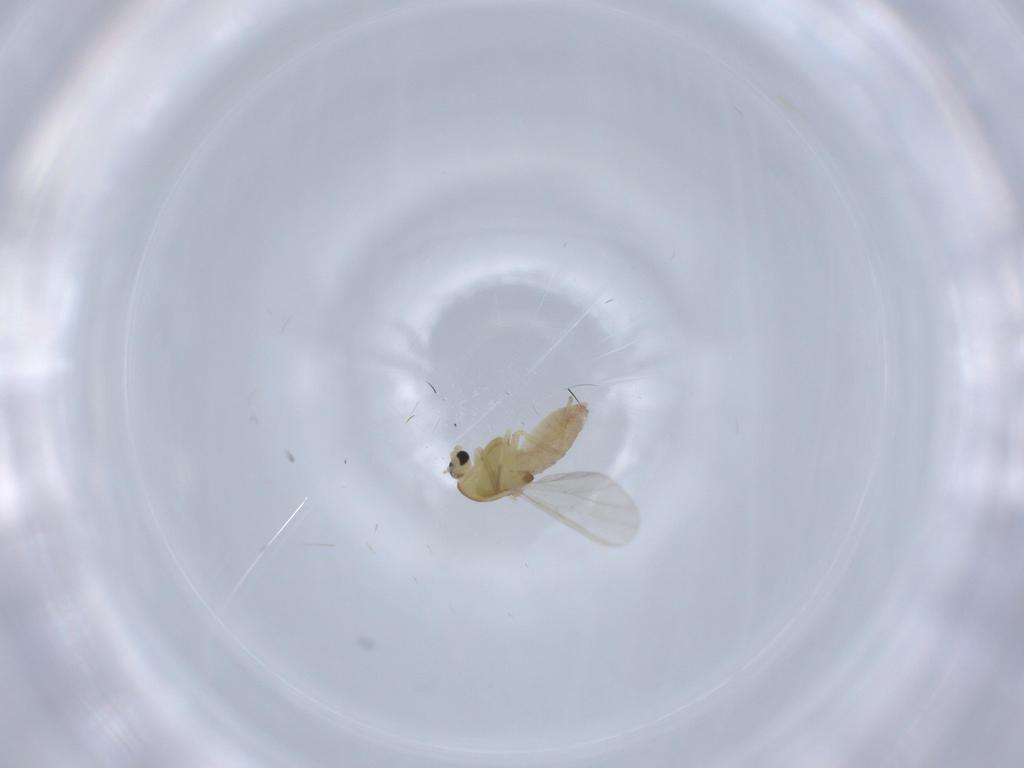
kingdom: Animalia
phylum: Arthropoda
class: Insecta
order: Diptera
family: Chironomidae
